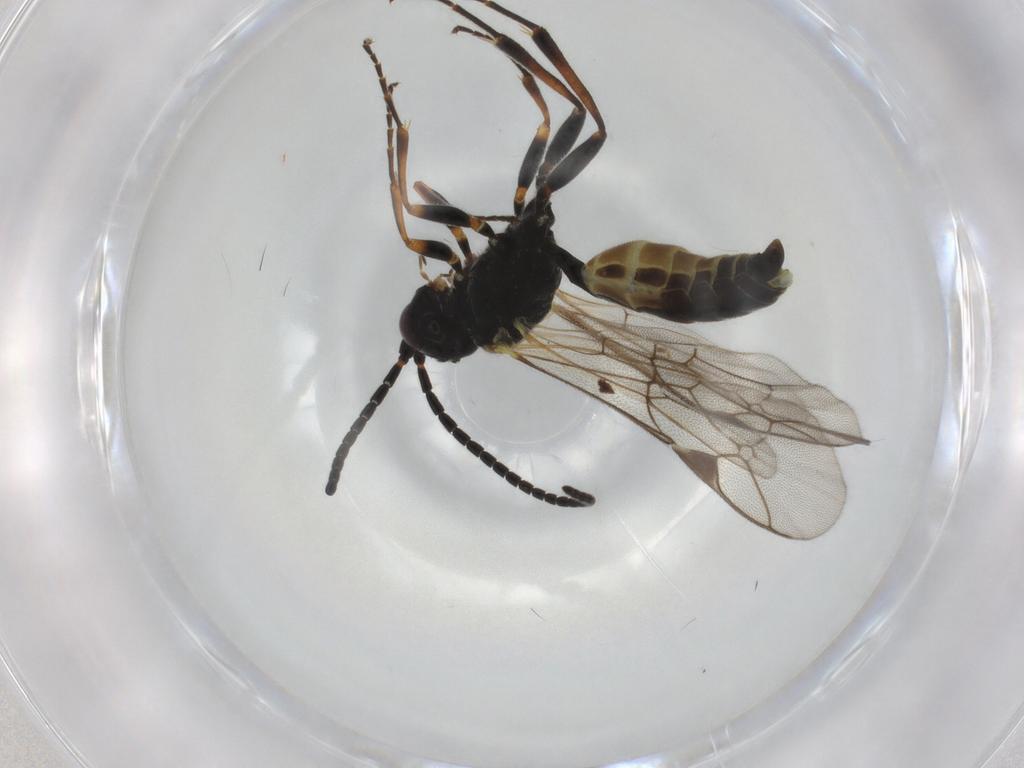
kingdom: Animalia
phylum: Arthropoda
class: Insecta
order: Hymenoptera
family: Ichneumonidae
